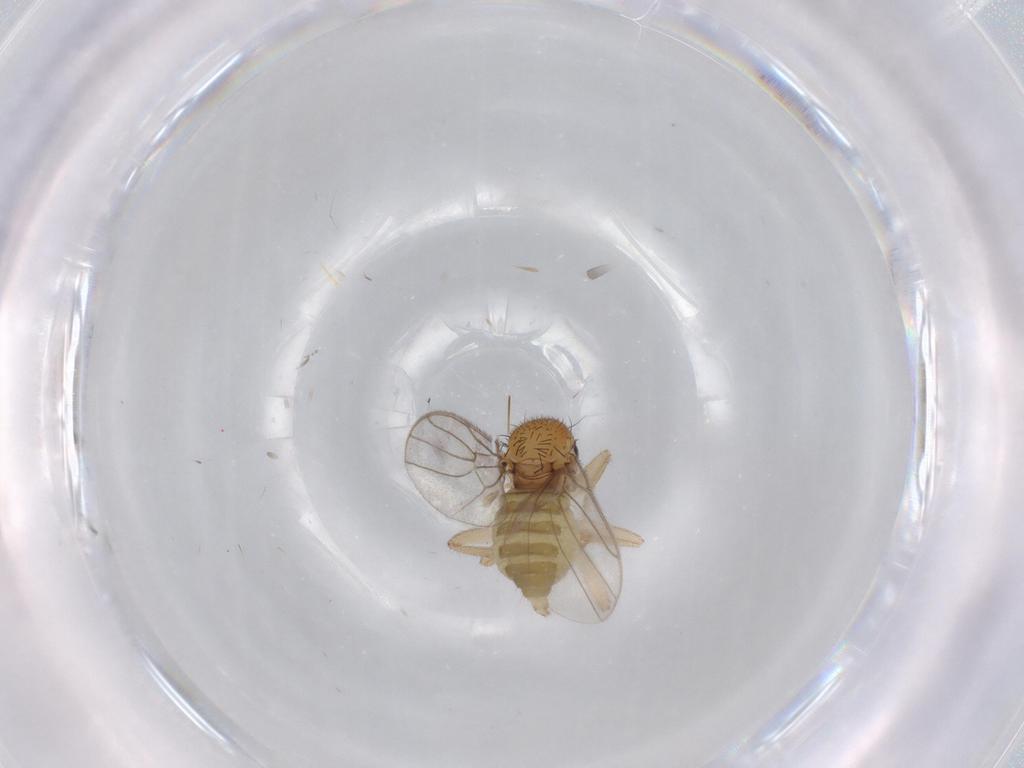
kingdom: Animalia
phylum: Arthropoda
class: Insecta
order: Diptera
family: Hybotidae
